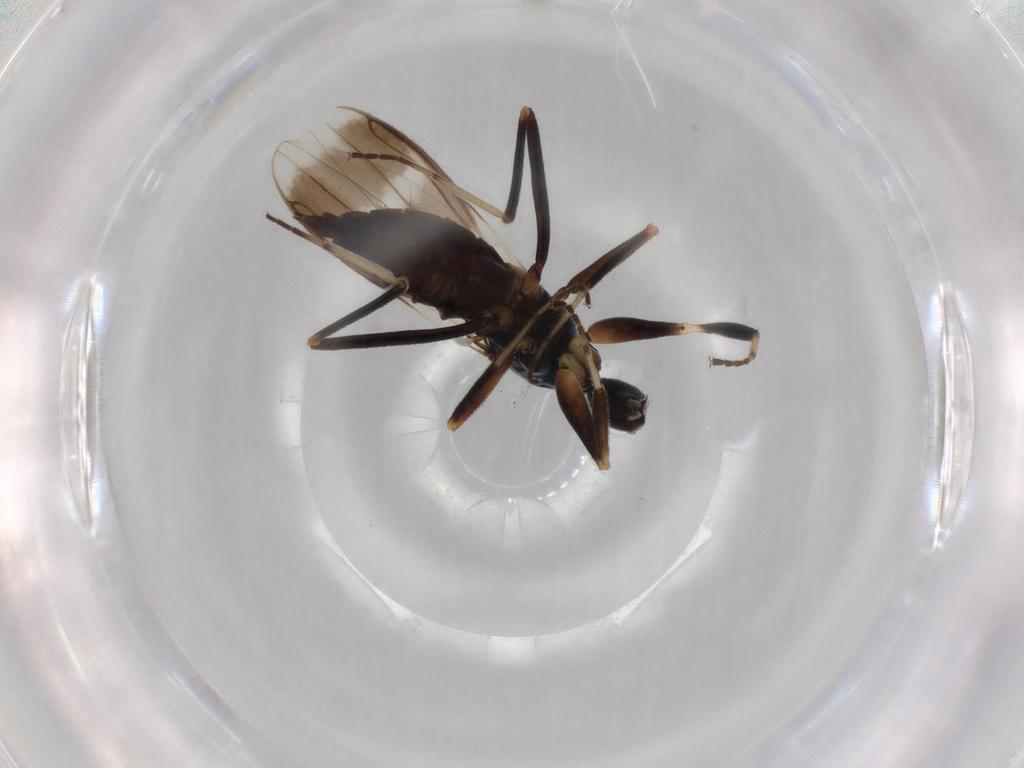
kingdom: Animalia
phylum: Arthropoda
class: Insecta
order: Diptera
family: Hybotidae
